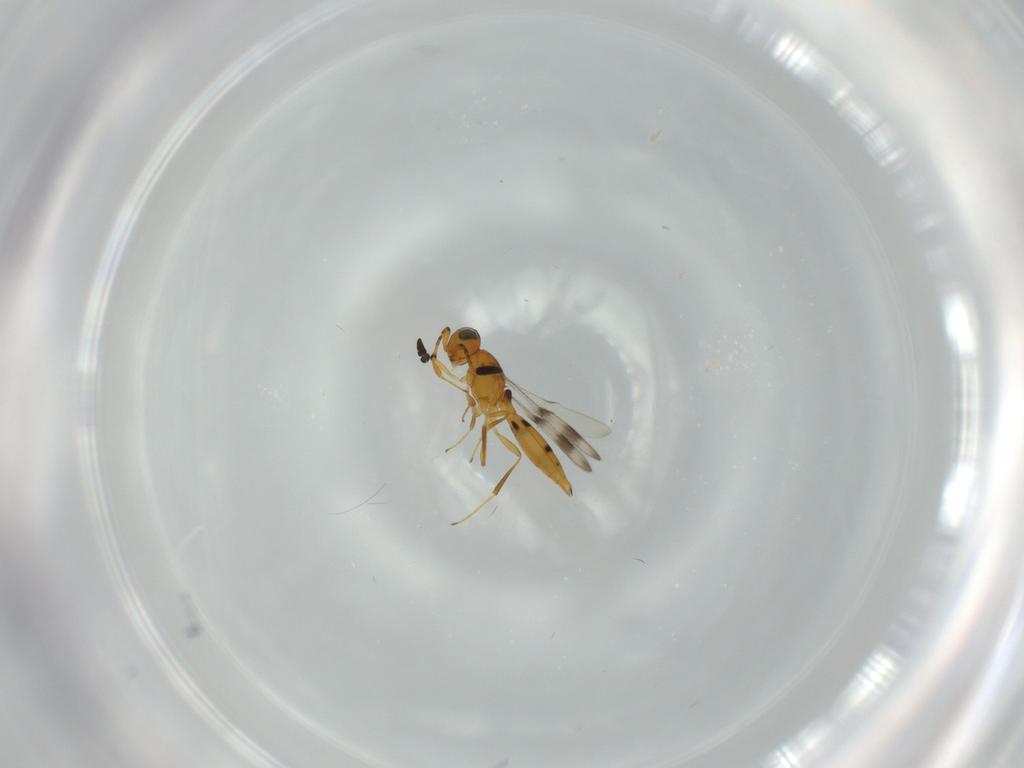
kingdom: Animalia
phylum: Arthropoda
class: Insecta
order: Hymenoptera
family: Scelionidae
